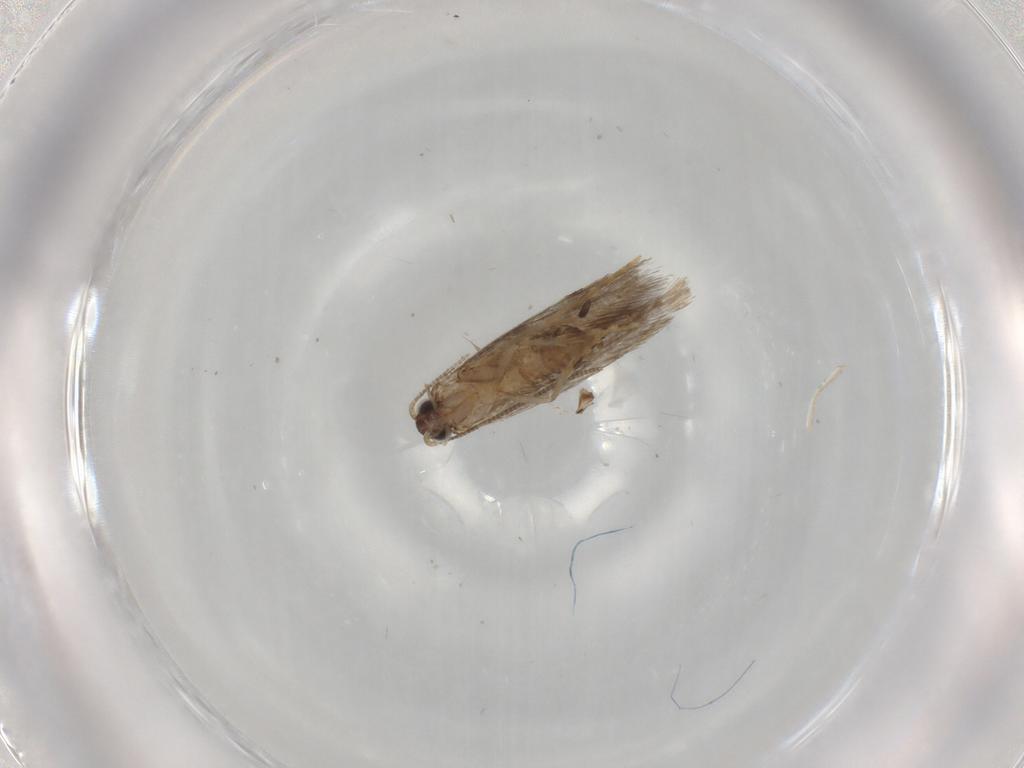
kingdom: Animalia
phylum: Arthropoda
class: Insecta
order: Lepidoptera
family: Tineidae
